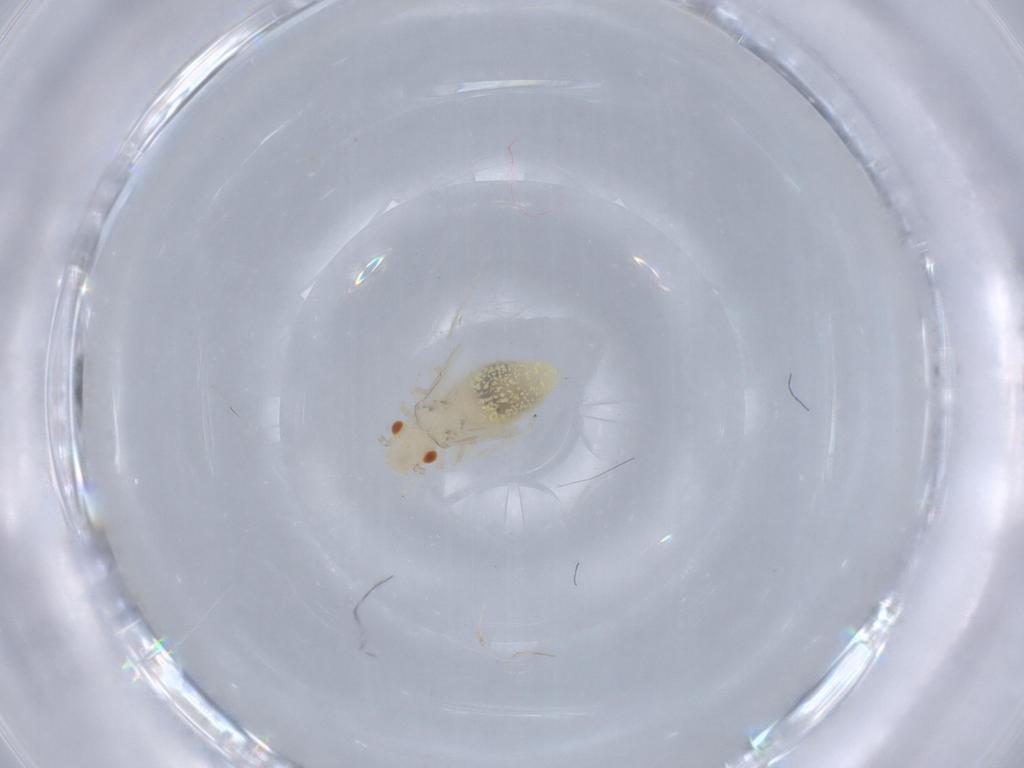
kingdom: Animalia
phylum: Arthropoda
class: Insecta
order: Psocodea
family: Caeciliusidae
